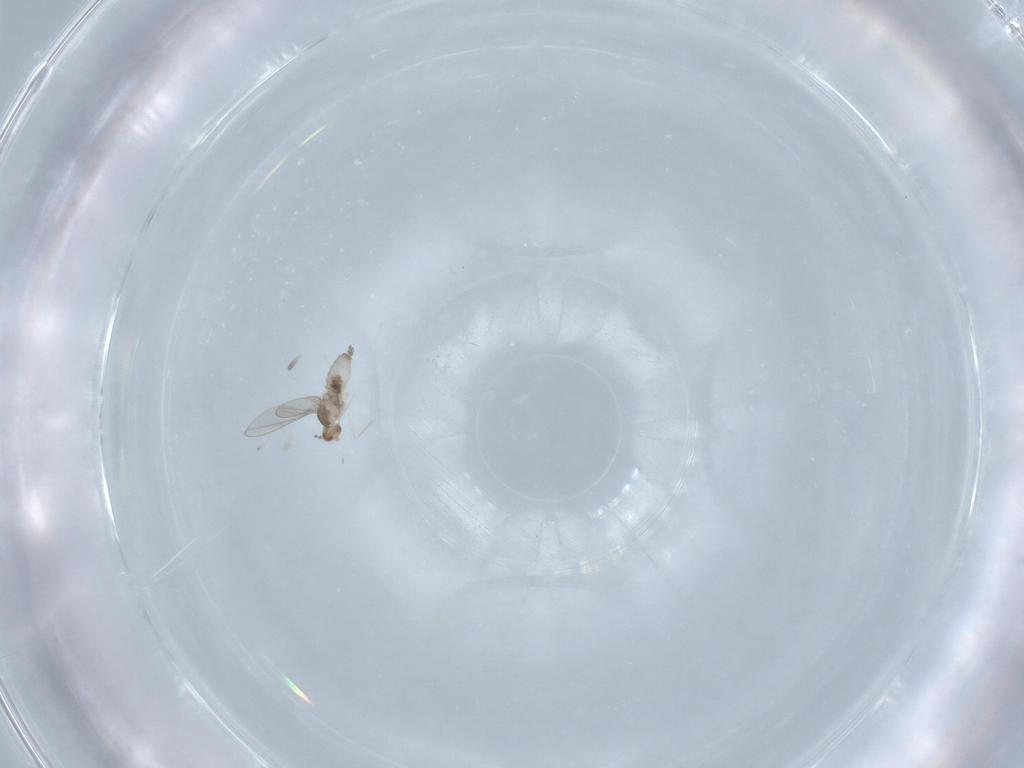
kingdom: Animalia
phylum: Arthropoda
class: Insecta
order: Diptera
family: Cecidomyiidae
